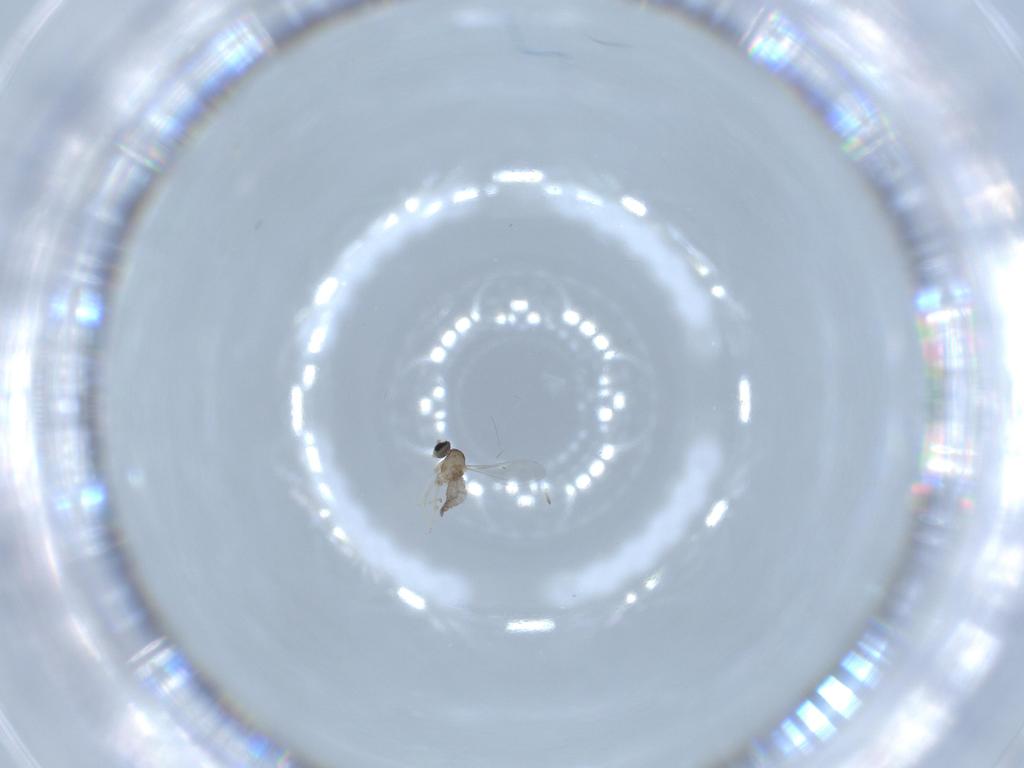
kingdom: Animalia
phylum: Arthropoda
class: Insecta
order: Diptera
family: Cecidomyiidae
